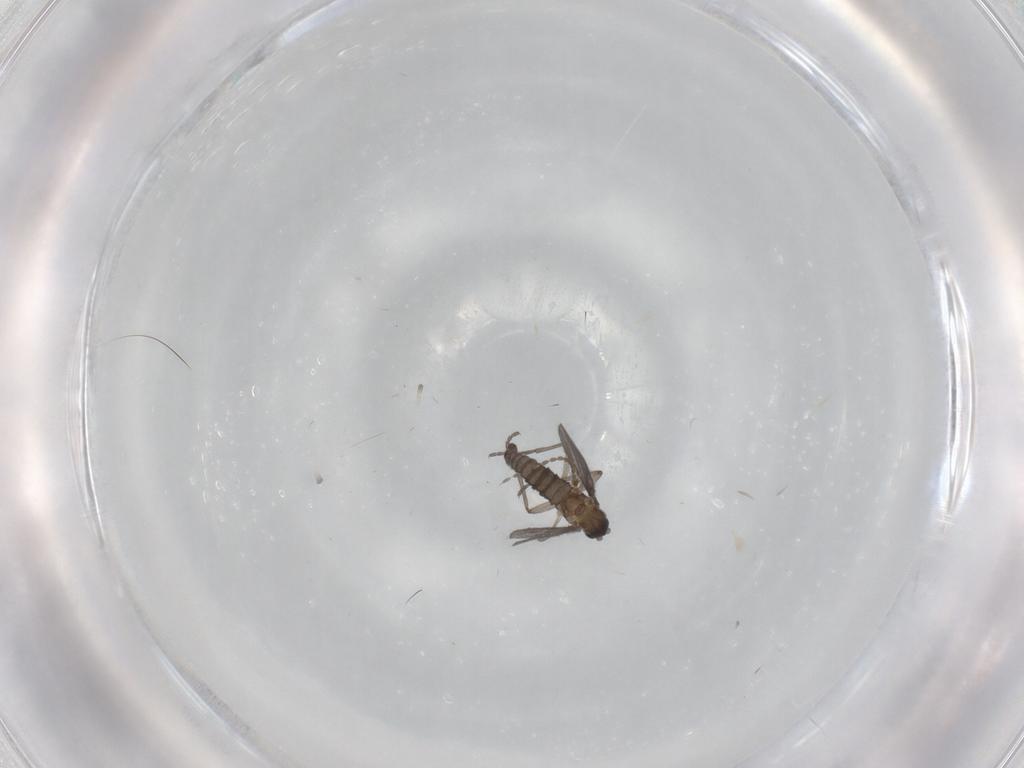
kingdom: Animalia
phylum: Arthropoda
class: Insecta
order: Diptera
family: Sciaridae
